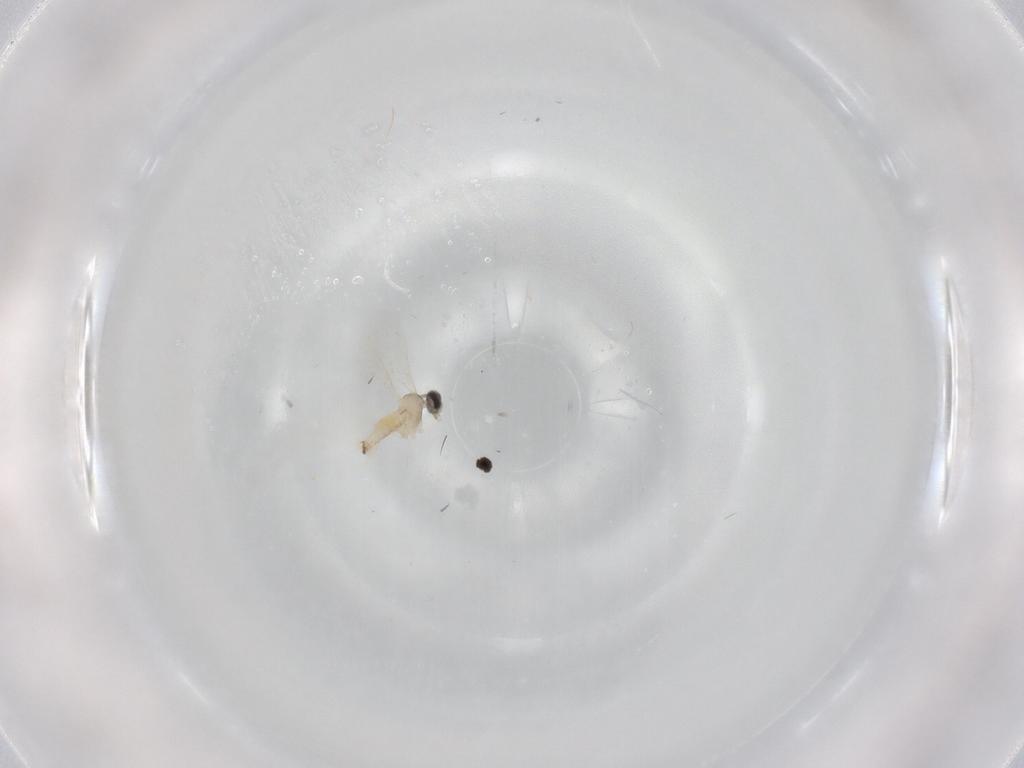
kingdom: Animalia
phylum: Arthropoda
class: Insecta
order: Diptera
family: Cecidomyiidae
